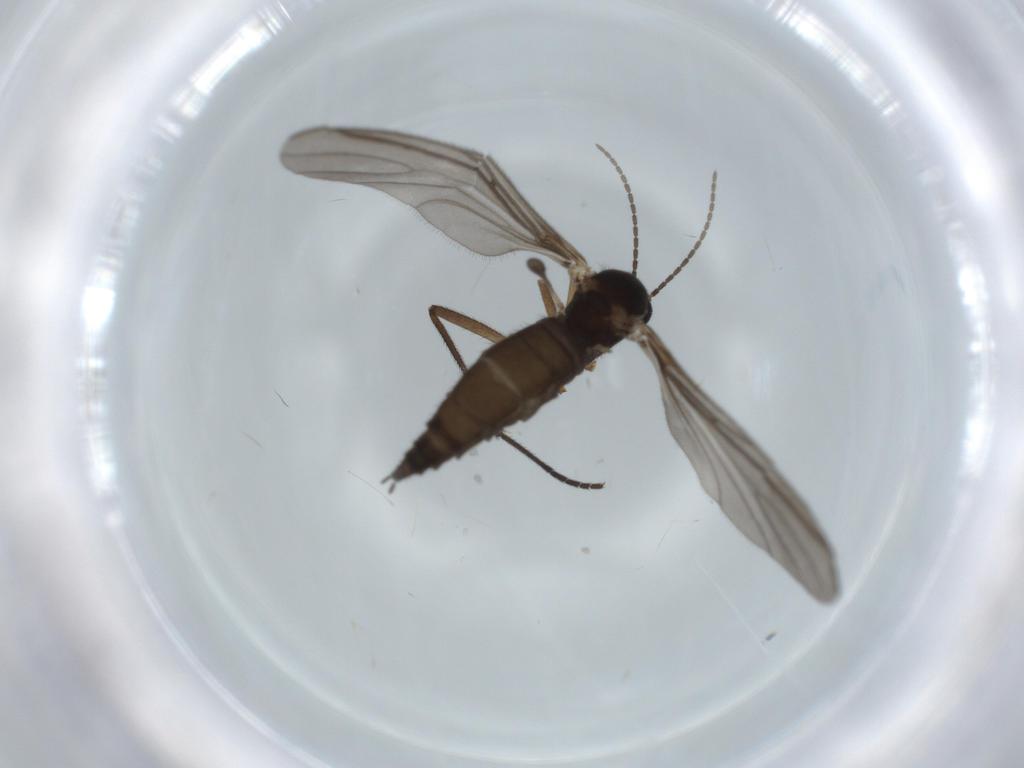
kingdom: Animalia
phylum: Arthropoda
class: Insecta
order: Diptera
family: Sciaridae
